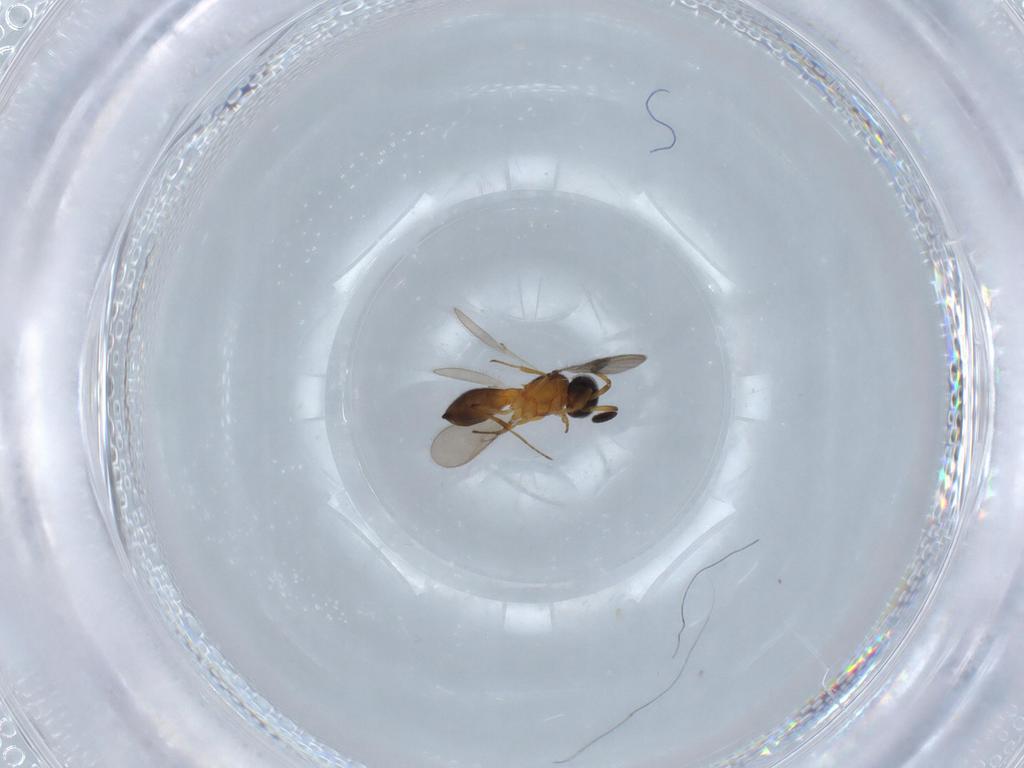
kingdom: Animalia
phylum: Arthropoda
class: Insecta
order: Hymenoptera
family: Scelionidae
